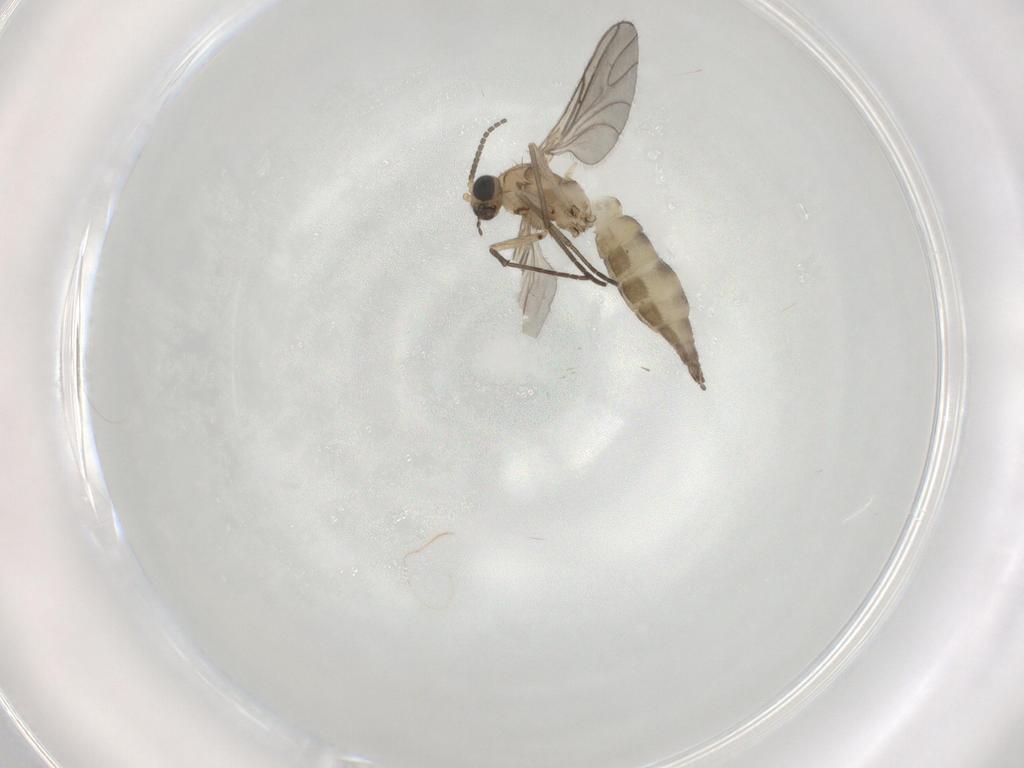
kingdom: Animalia
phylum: Arthropoda
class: Insecta
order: Diptera
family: Sciaridae
